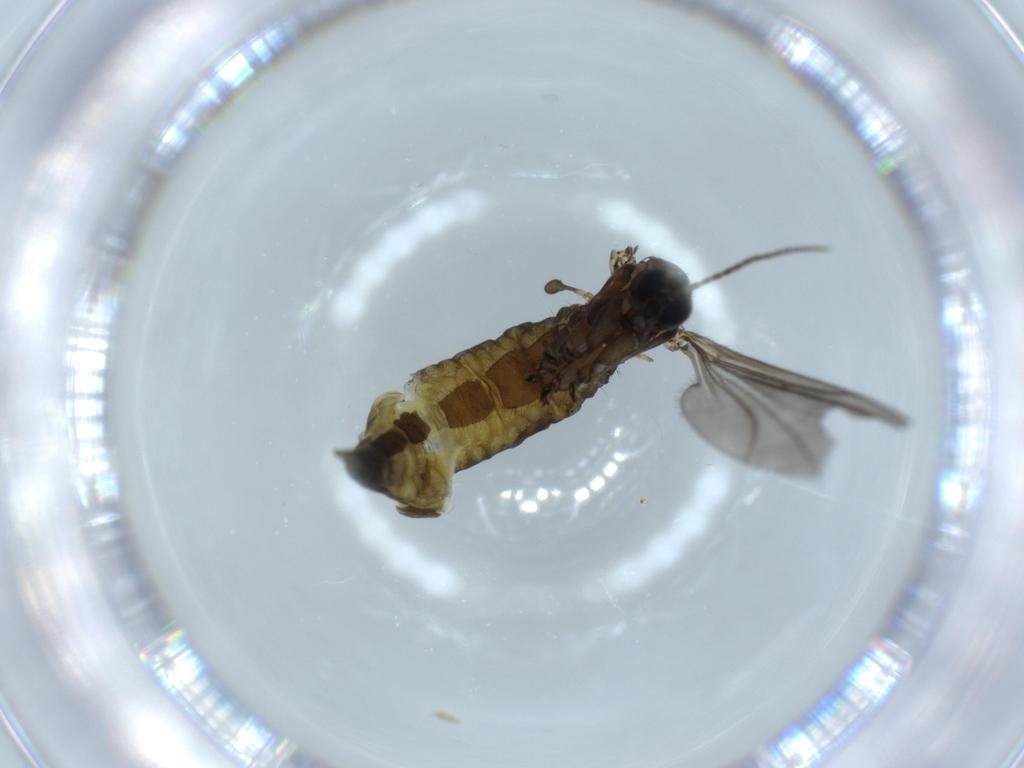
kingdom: Animalia
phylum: Arthropoda
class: Insecta
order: Diptera
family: Sciaridae
